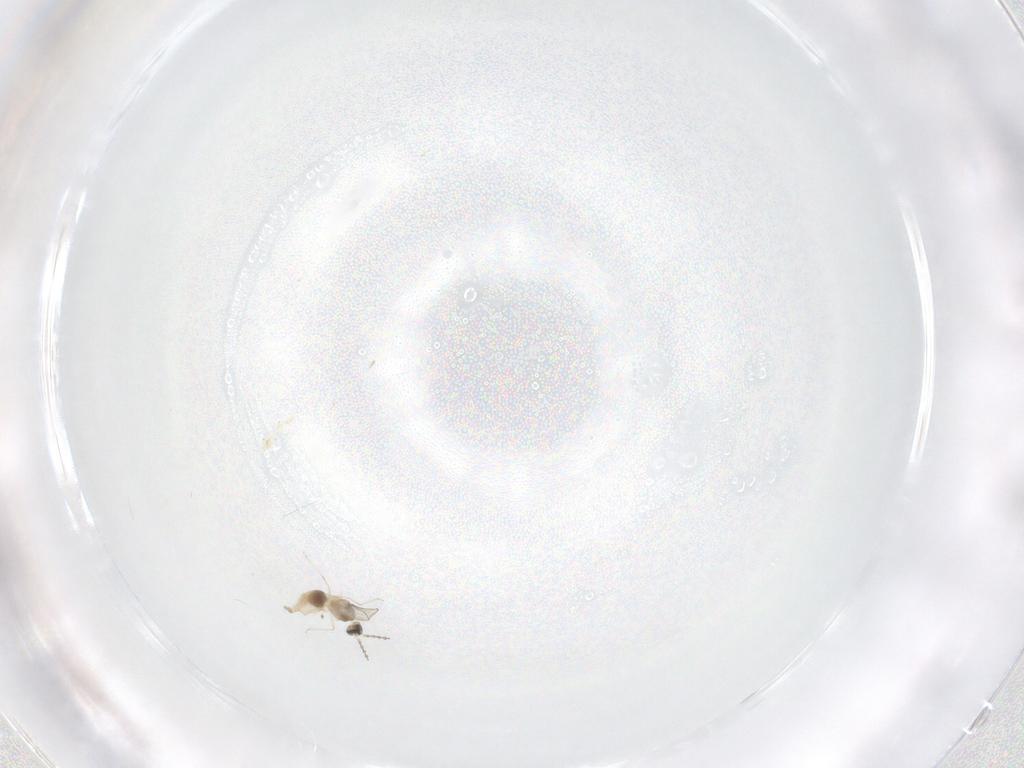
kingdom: Animalia
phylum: Arthropoda
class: Insecta
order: Diptera
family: Cecidomyiidae
